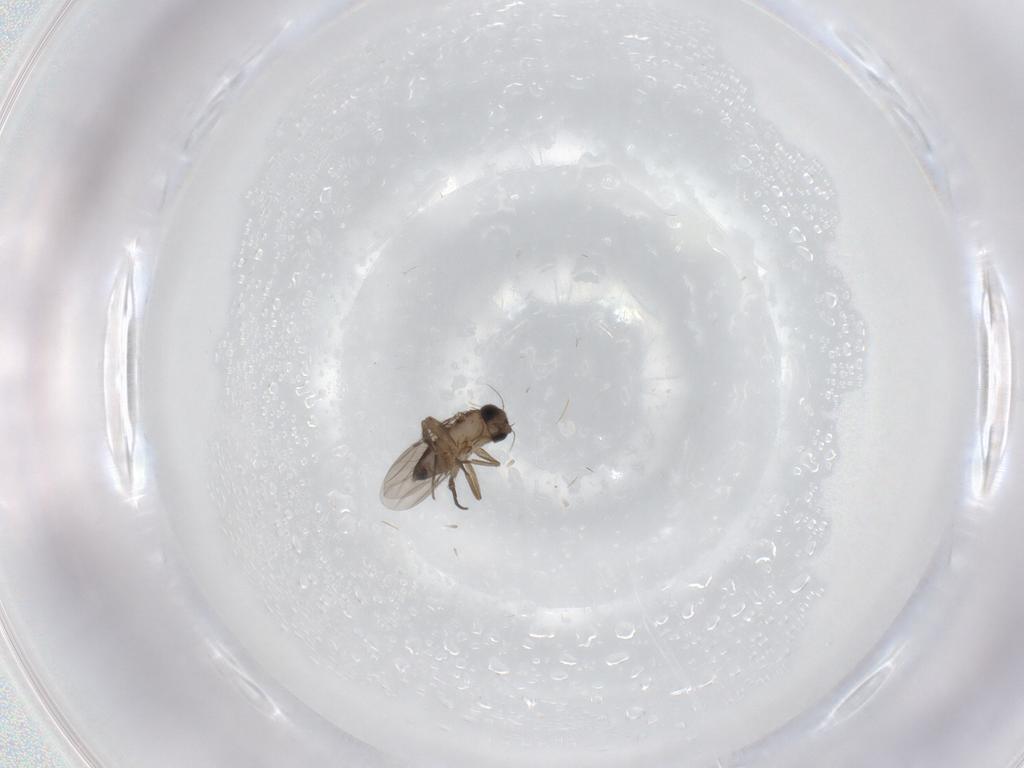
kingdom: Animalia
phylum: Arthropoda
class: Insecta
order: Diptera
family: Phoridae
